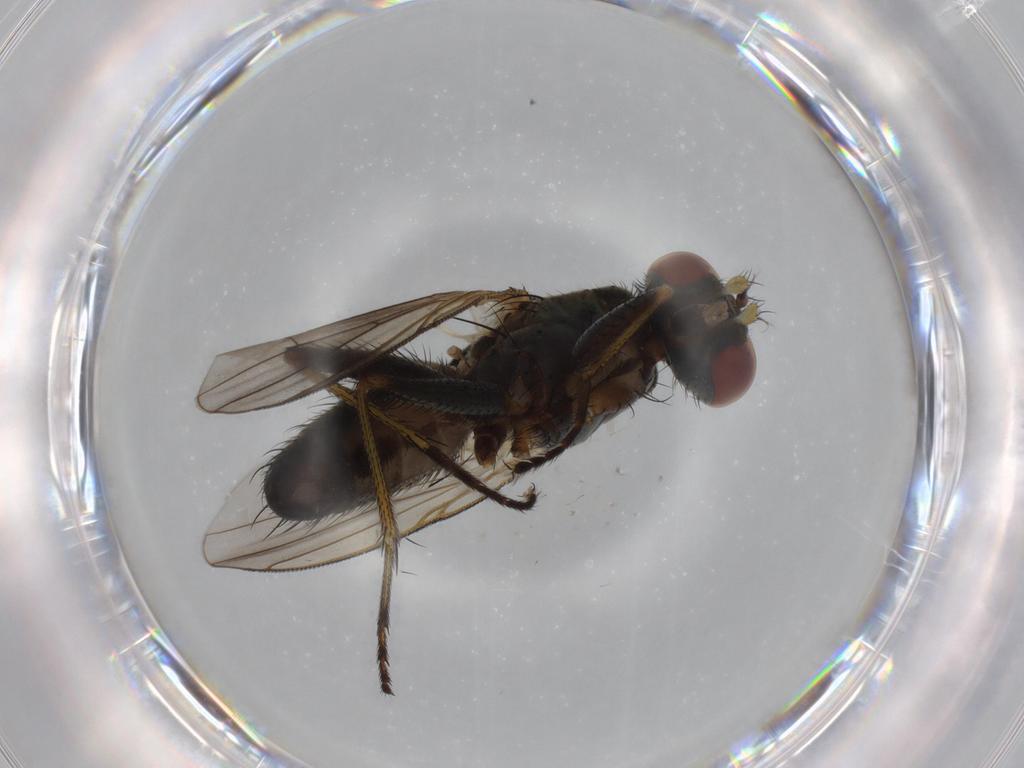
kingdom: Animalia
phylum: Arthropoda
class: Insecta
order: Diptera
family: Muscidae
